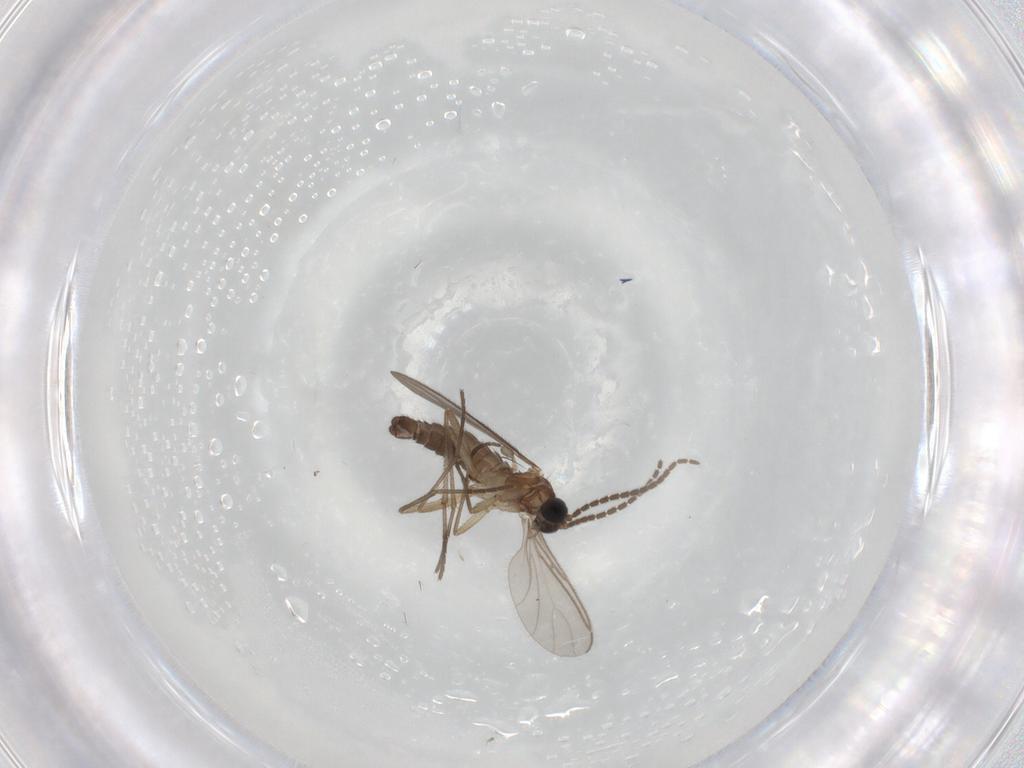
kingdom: Animalia
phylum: Arthropoda
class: Insecta
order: Diptera
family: Sciaridae
